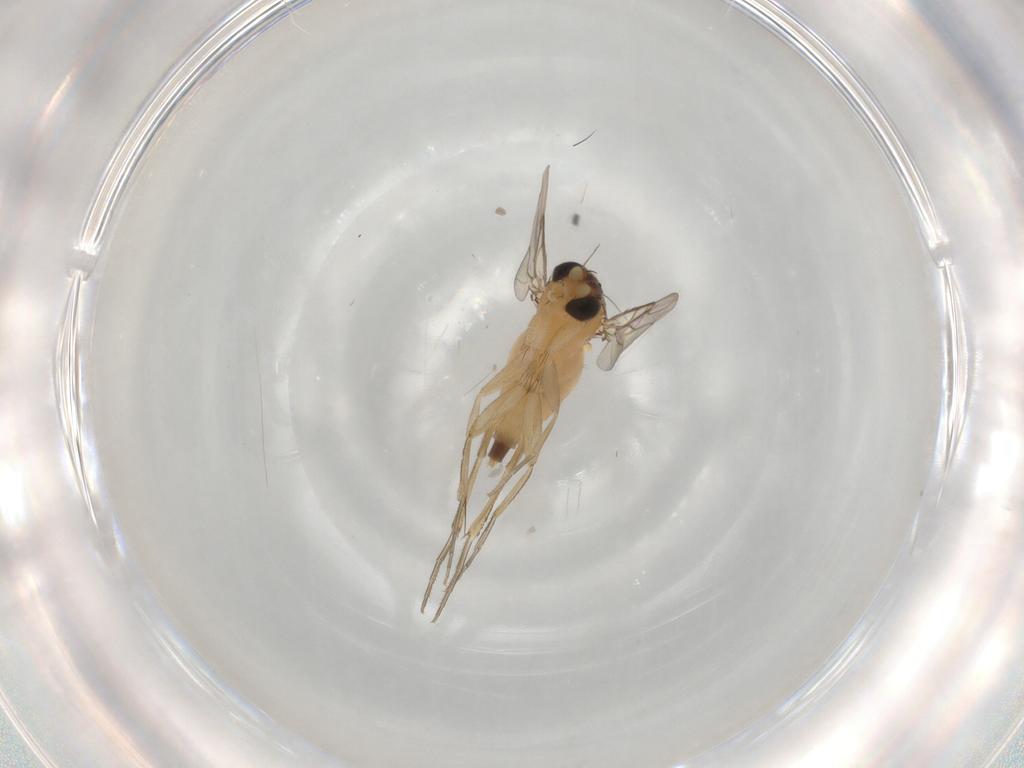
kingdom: Animalia
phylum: Arthropoda
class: Insecta
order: Diptera
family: Phoridae
